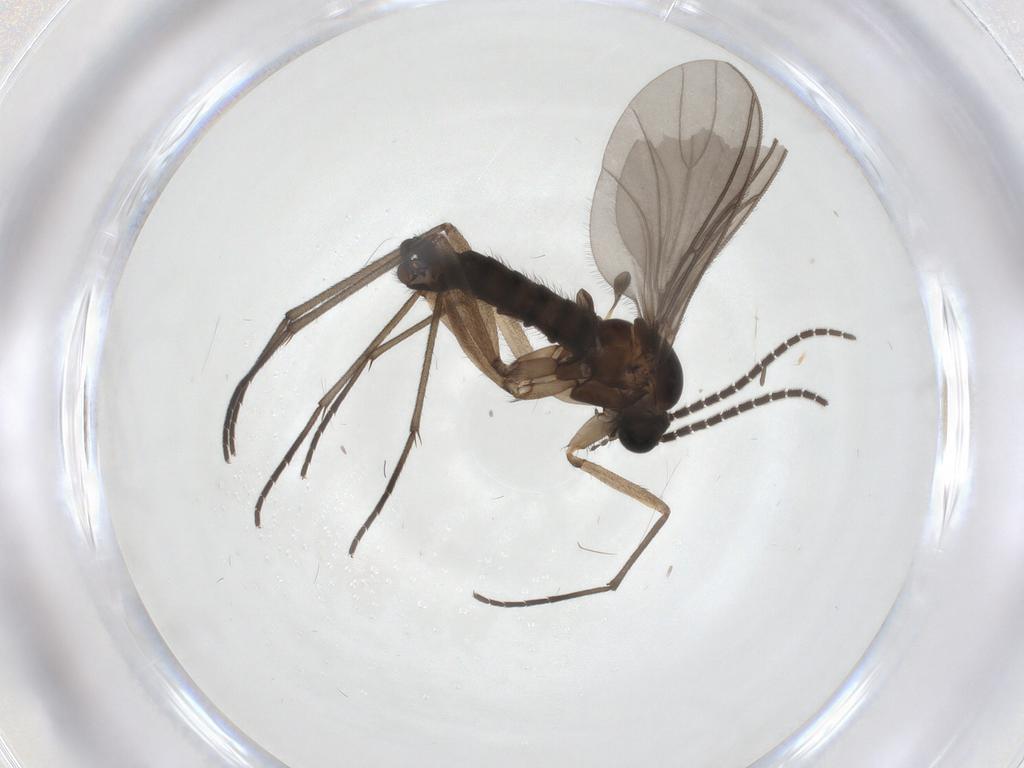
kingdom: Animalia
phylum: Arthropoda
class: Insecta
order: Diptera
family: Sciaridae
